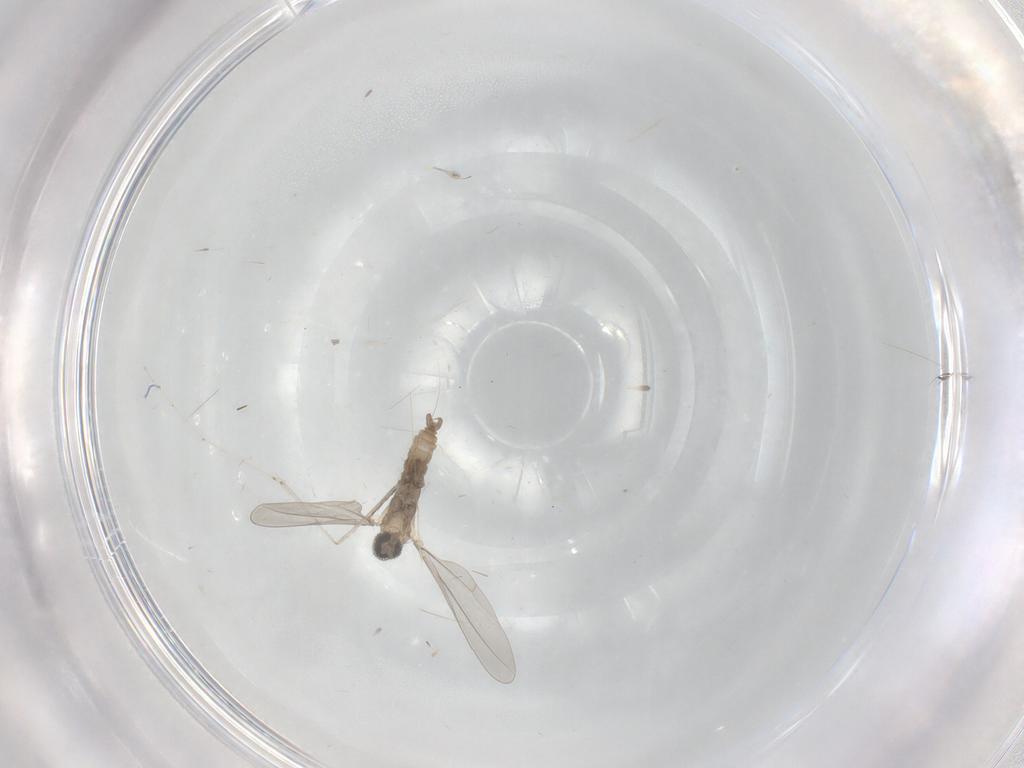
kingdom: Animalia
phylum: Arthropoda
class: Insecta
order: Diptera
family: Cecidomyiidae
